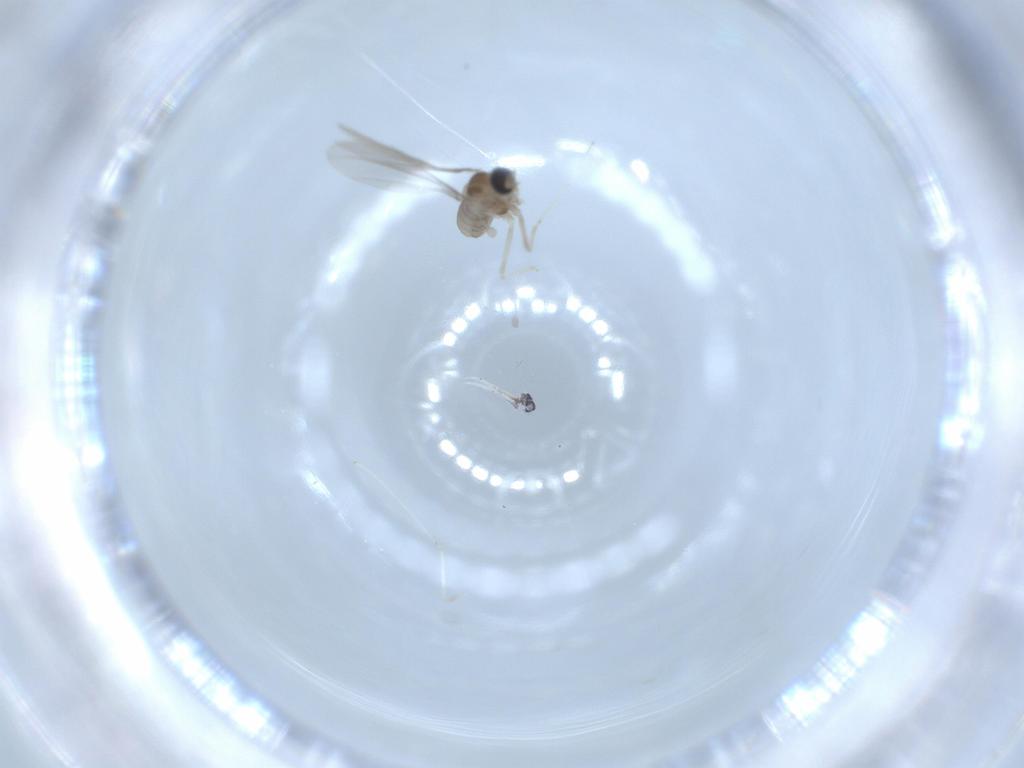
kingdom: Animalia
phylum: Arthropoda
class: Insecta
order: Diptera
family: Cecidomyiidae
